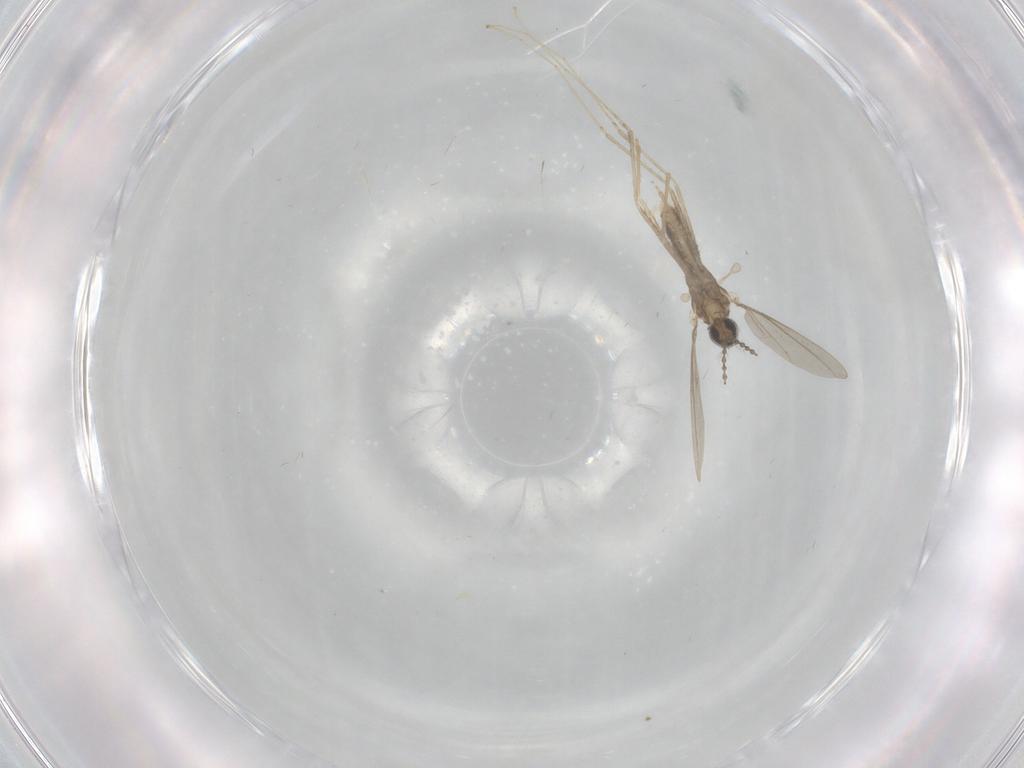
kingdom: Animalia
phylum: Arthropoda
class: Insecta
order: Diptera
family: Cecidomyiidae
